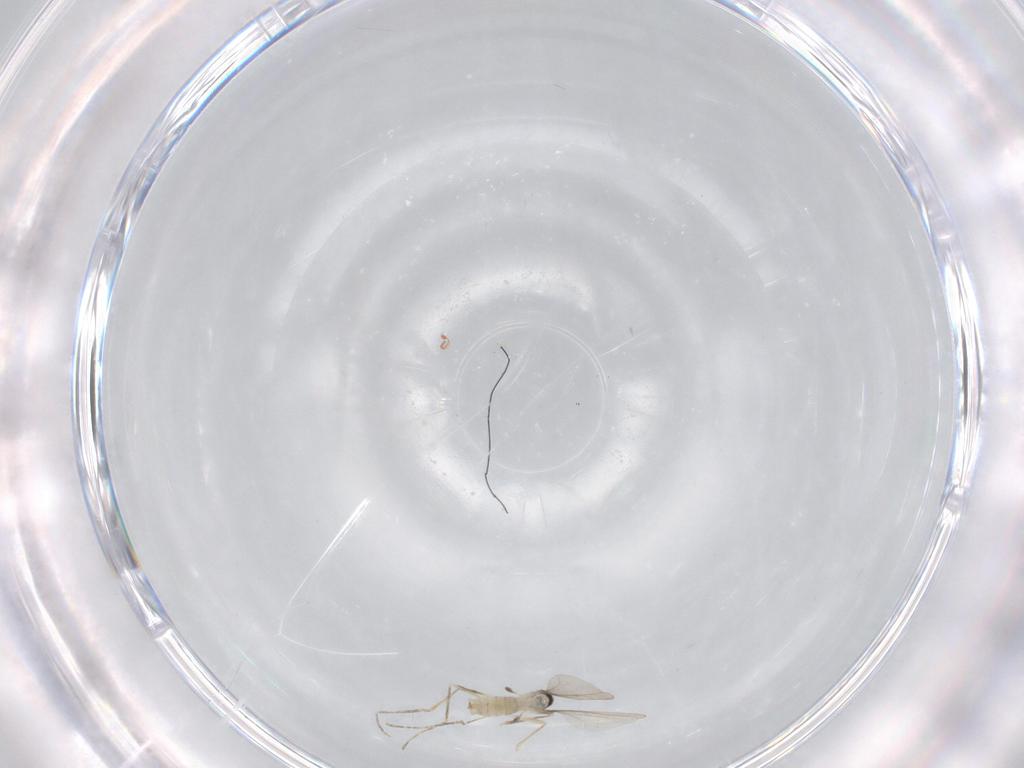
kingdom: Animalia
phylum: Arthropoda
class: Insecta
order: Diptera
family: Cecidomyiidae
